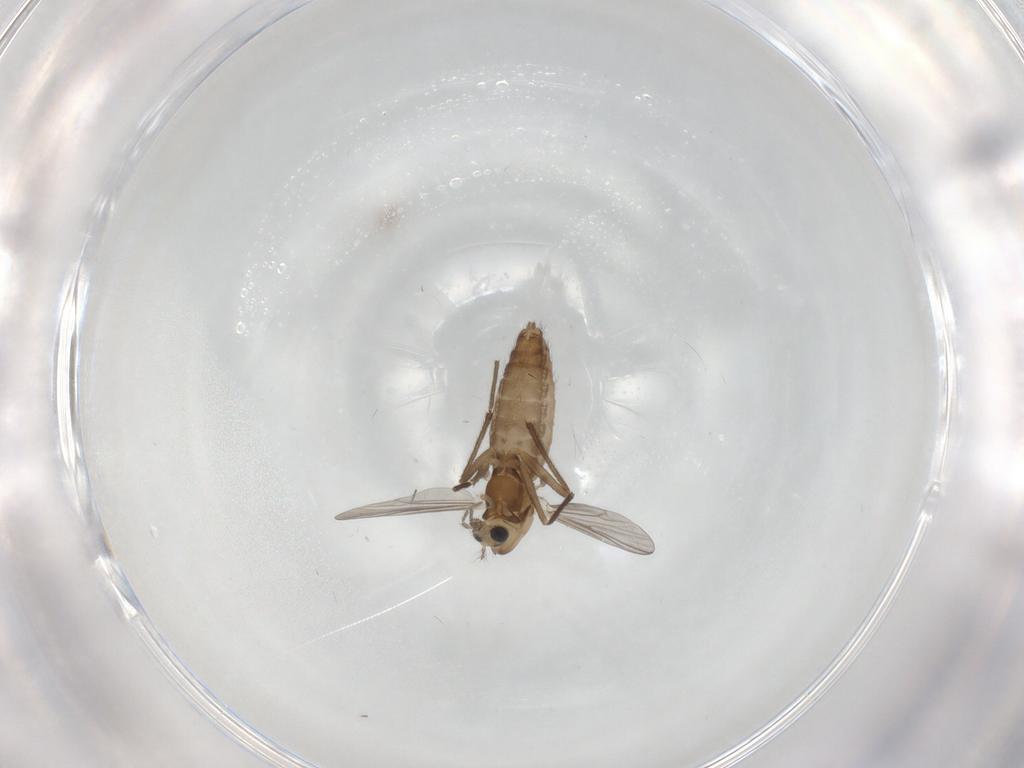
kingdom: Animalia
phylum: Arthropoda
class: Insecta
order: Diptera
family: Chironomidae
